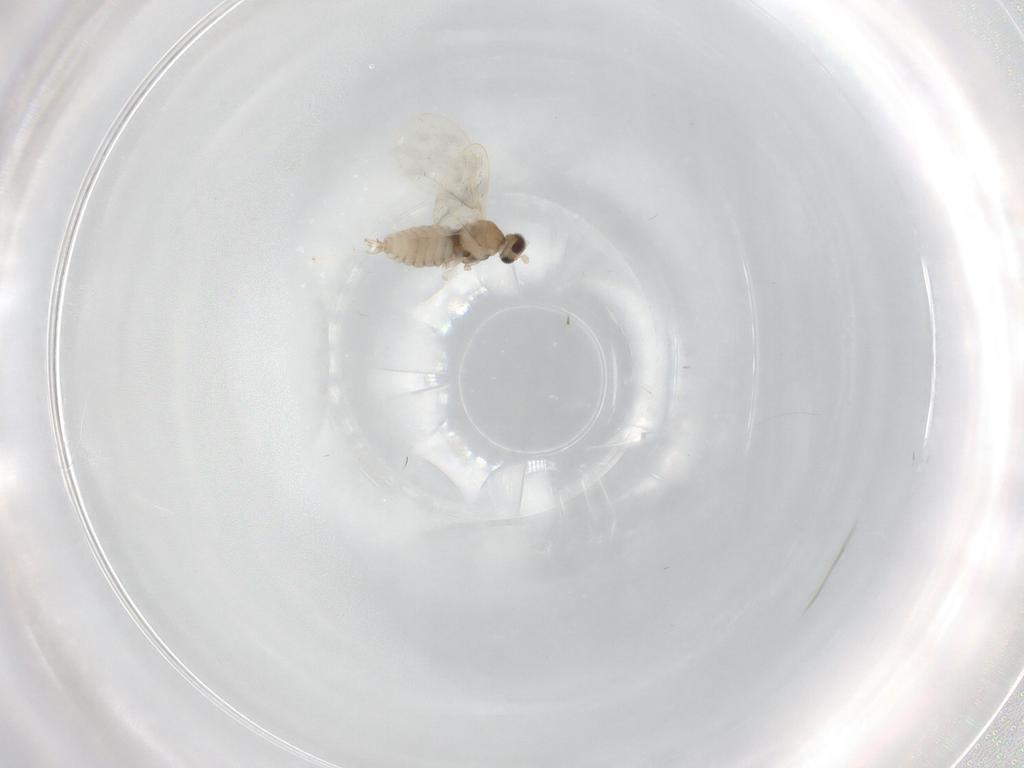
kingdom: Animalia
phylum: Arthropoda
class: Insecta
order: Diptera
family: Cecidomyiidae
